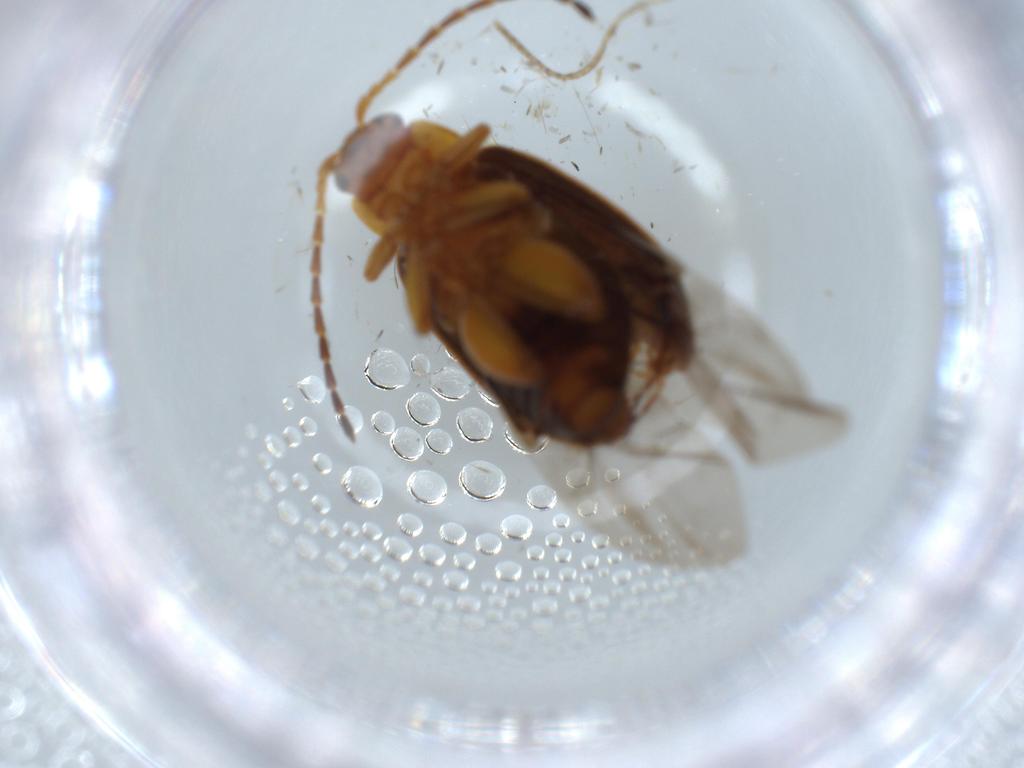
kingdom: Animalia
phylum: Arthropoda
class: Insecta
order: Coleoptera
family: Chrysomelidae
